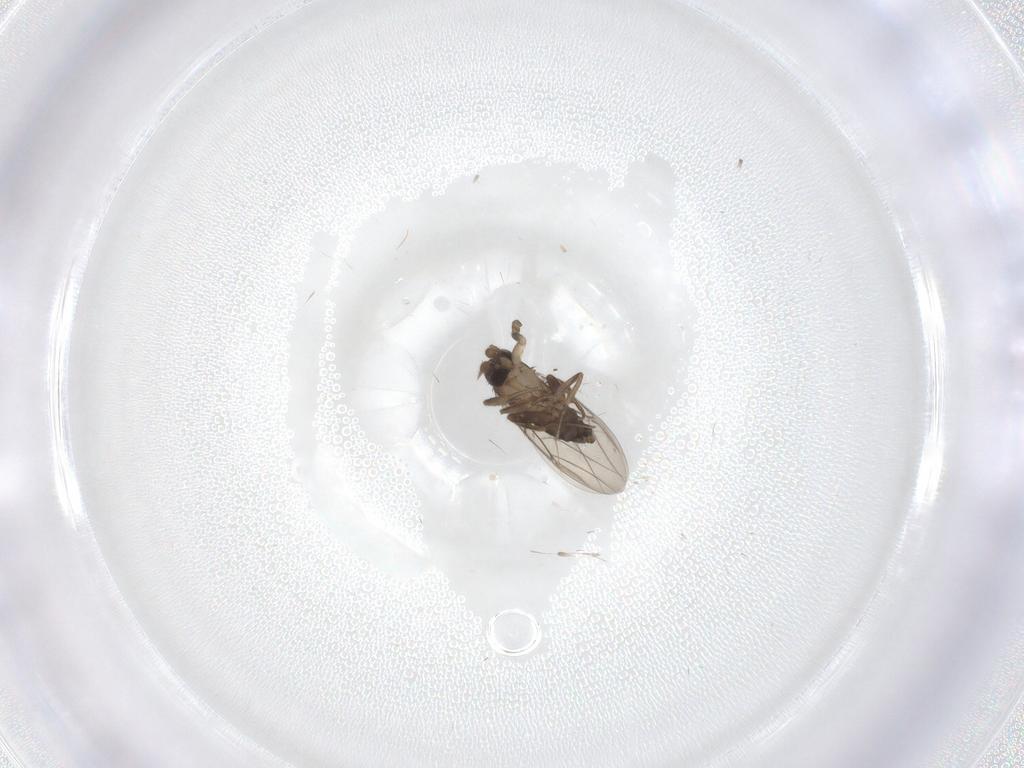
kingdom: Animalia
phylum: Arthropoda
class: Insecta
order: Diptera
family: Phoridae
